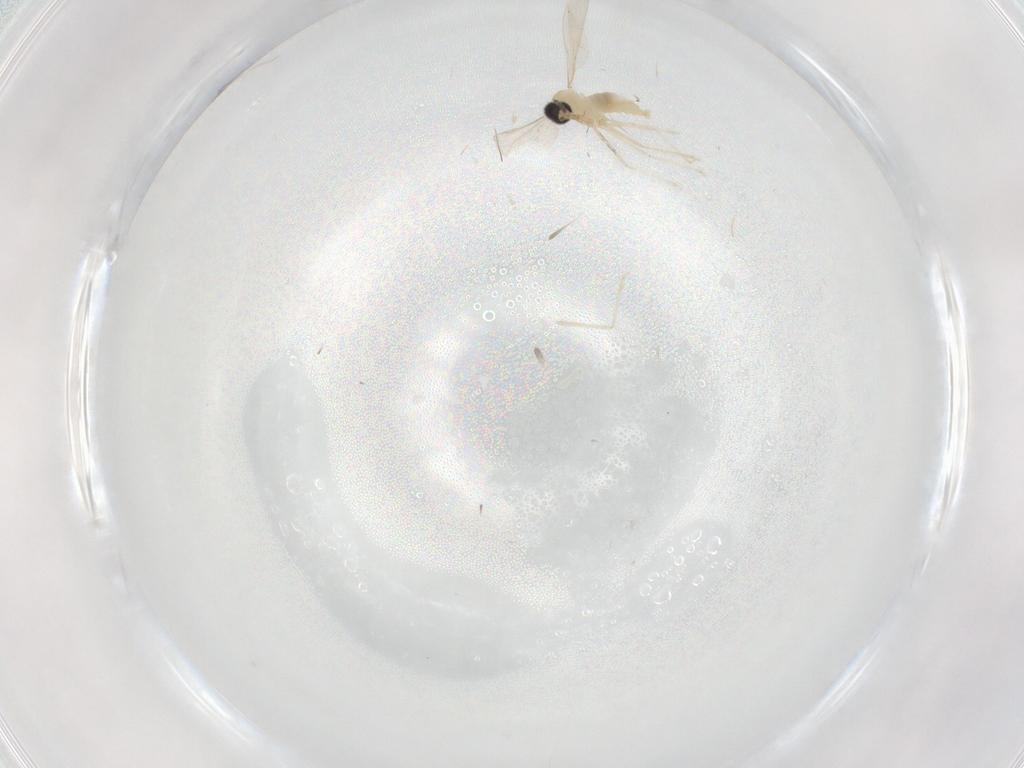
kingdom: Animalia
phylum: Arthropoda
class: Insecta
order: Diptera
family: Cecidomyiidae
